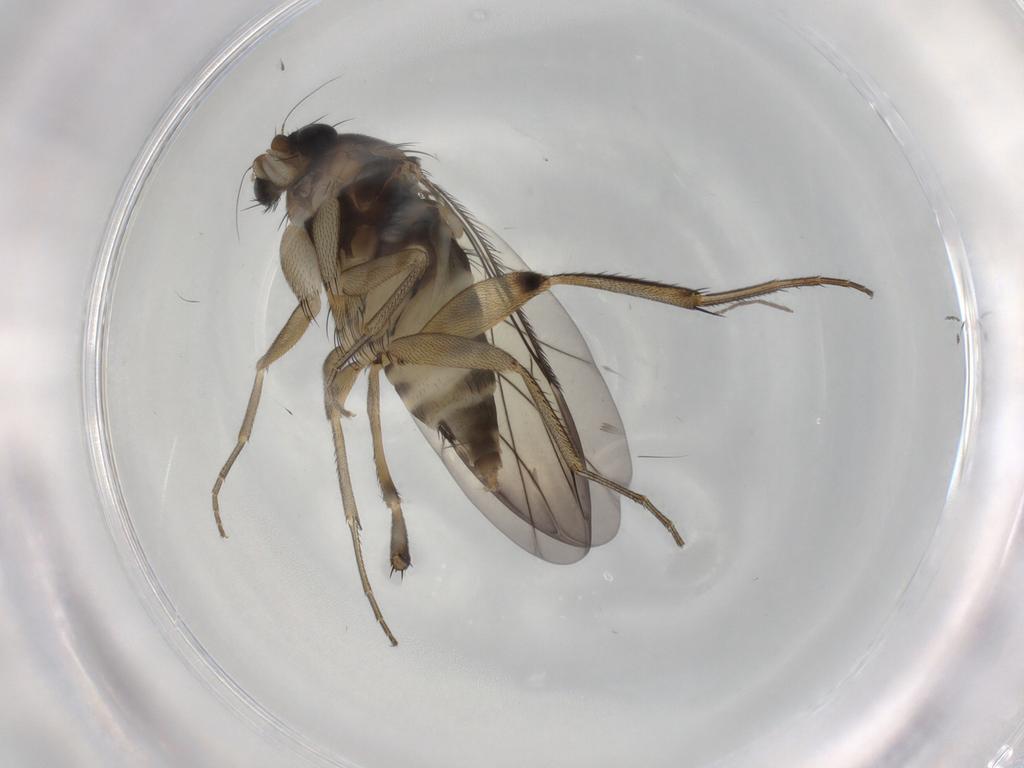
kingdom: Animalia
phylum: Arthropoda
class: Insecta
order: Diptera
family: Phoridae
